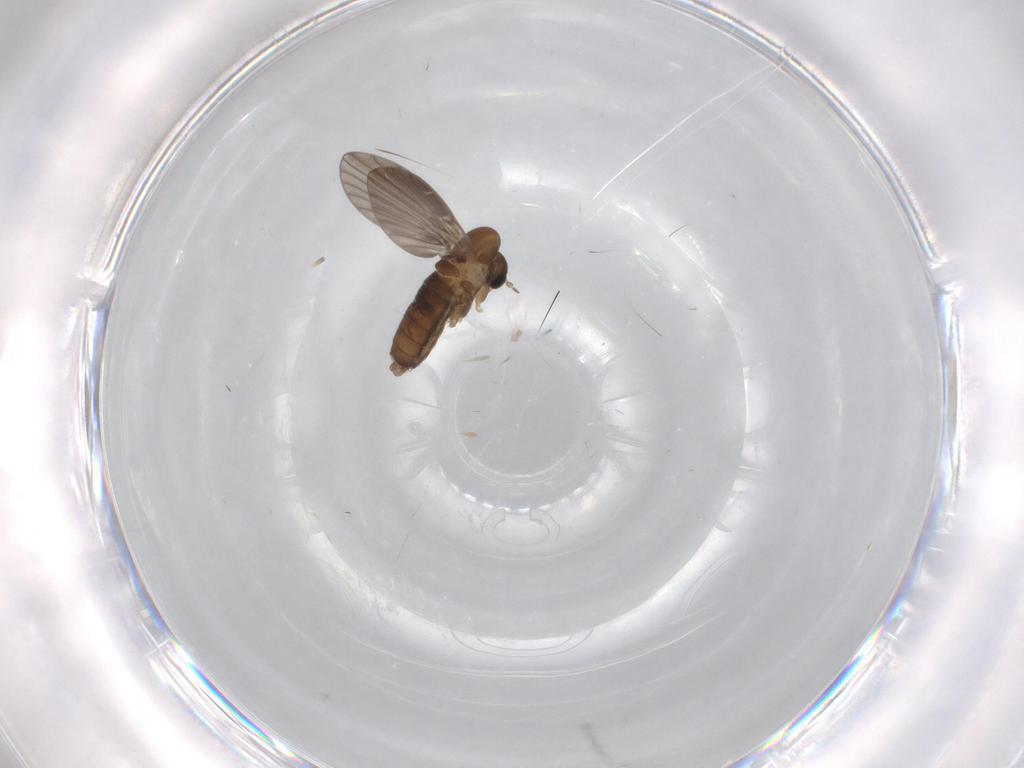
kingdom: Animalia
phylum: Arthropoda
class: Insecta
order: Diptera
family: Psychodidae
